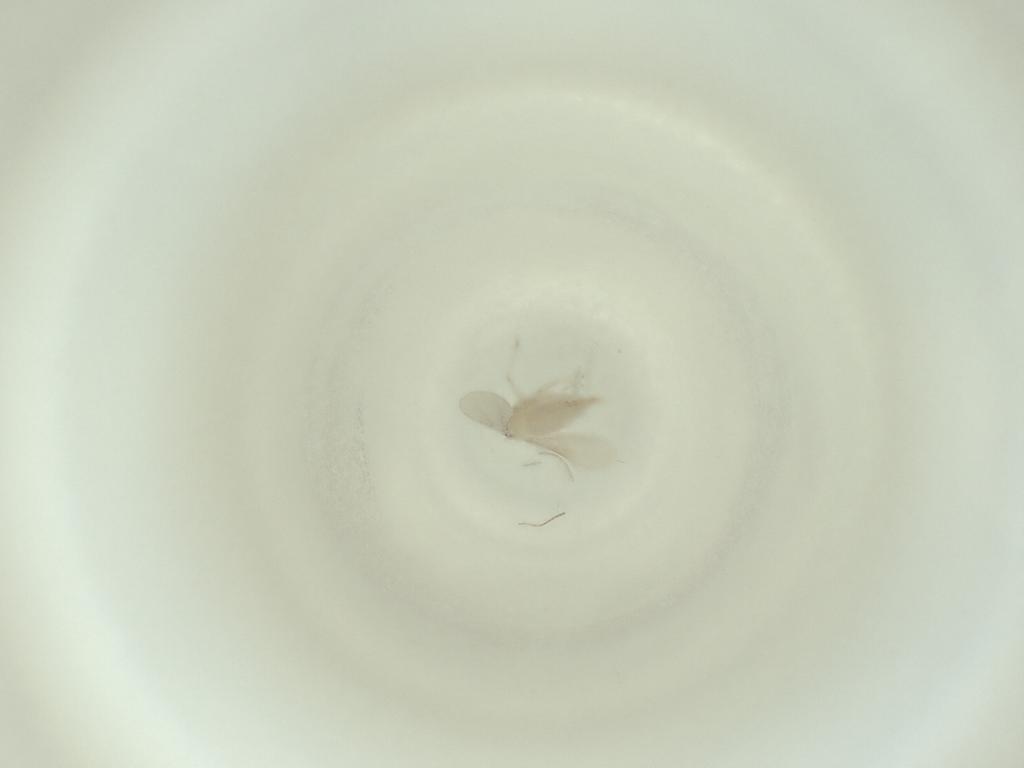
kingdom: Animalia
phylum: Arthropoda
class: Insecta
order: Diptera
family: Cecidomyiidae
